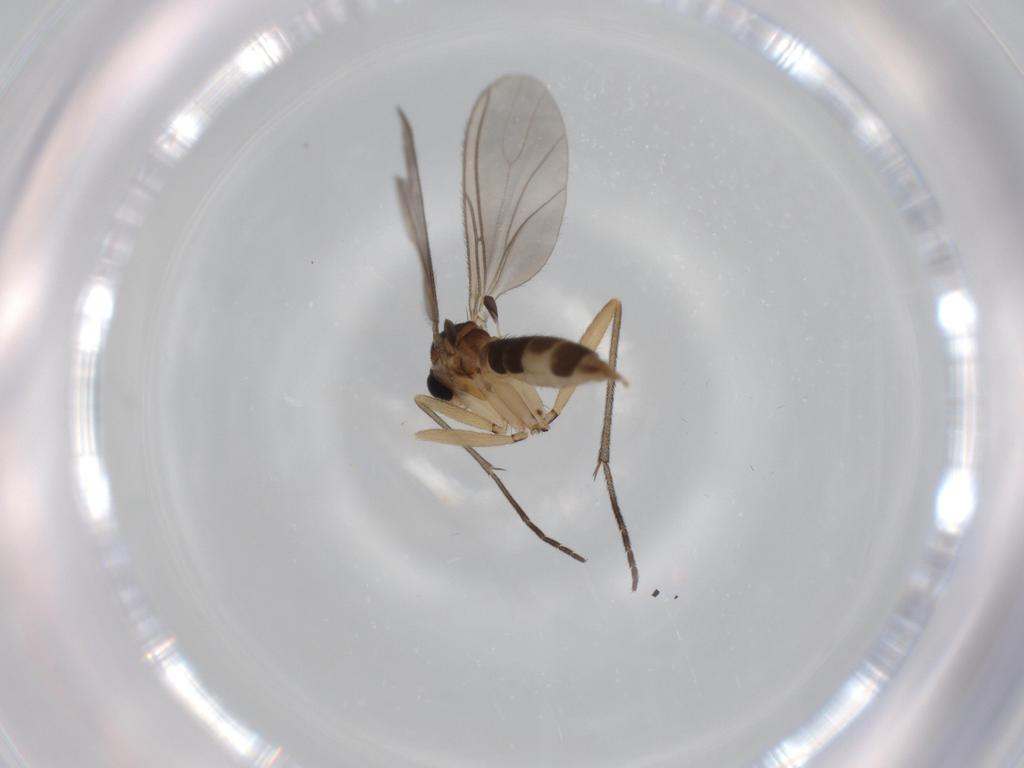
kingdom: Animalia
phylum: Arthropoda
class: Insecta
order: Diptera
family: Sciaridae
